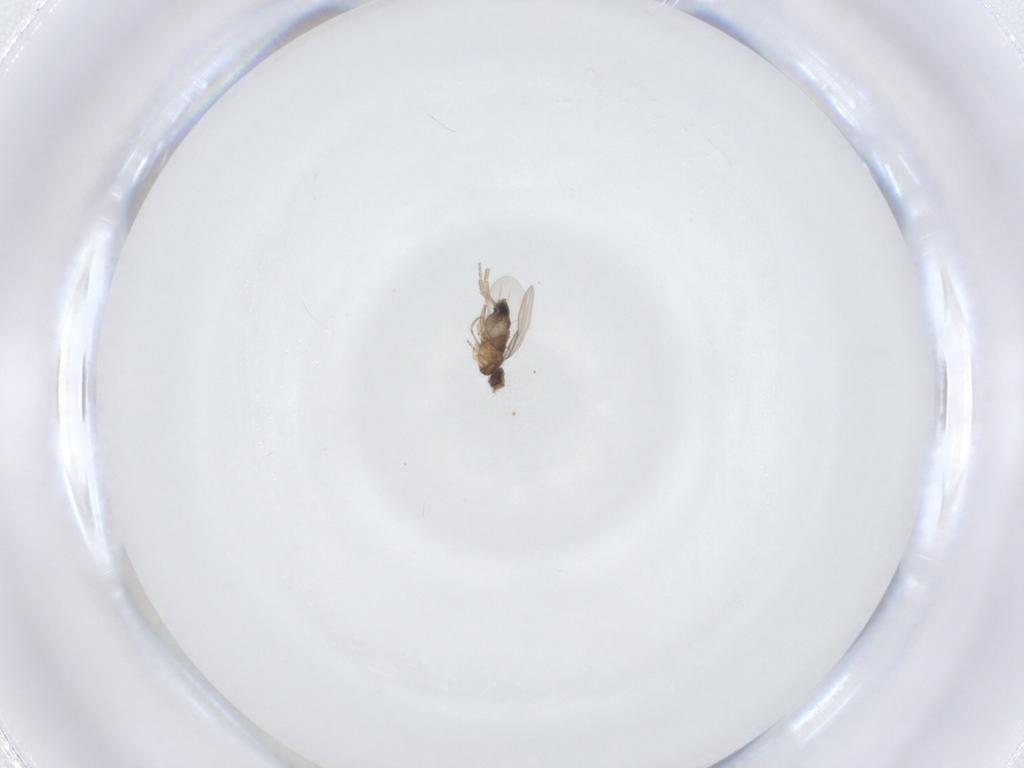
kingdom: Animalia
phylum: Arthropoda
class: Insecta
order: Diptera
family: Phoridae
